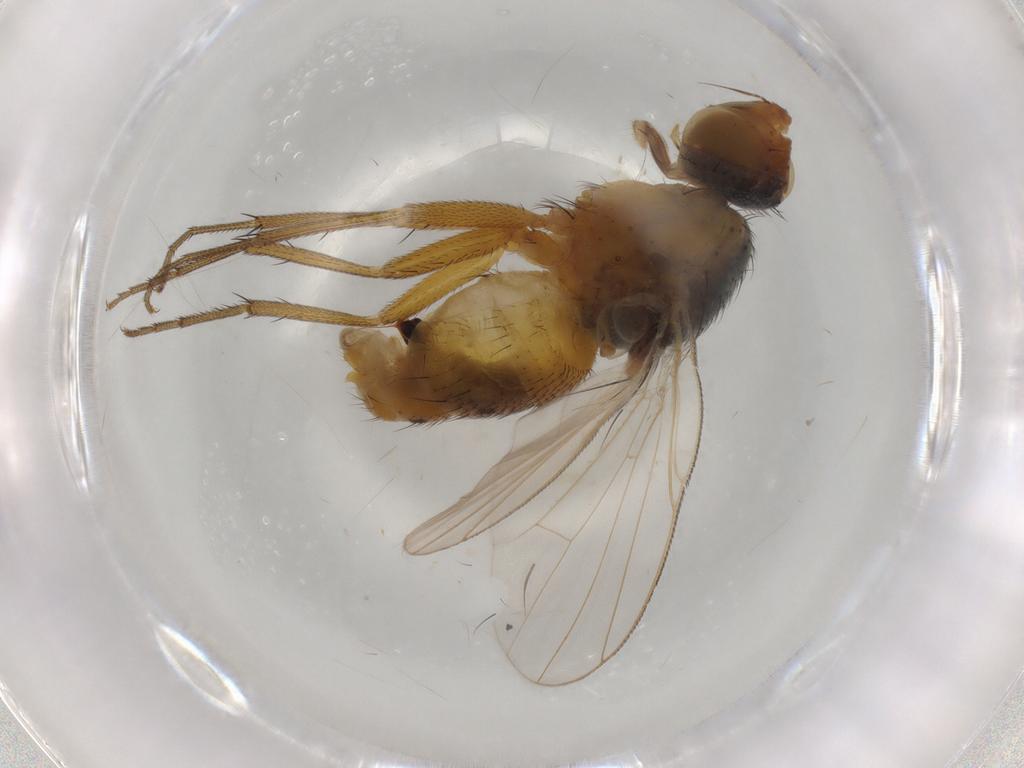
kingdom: Animalia
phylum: Arthropoda
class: Insecta
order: Diptera
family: Muscidae
